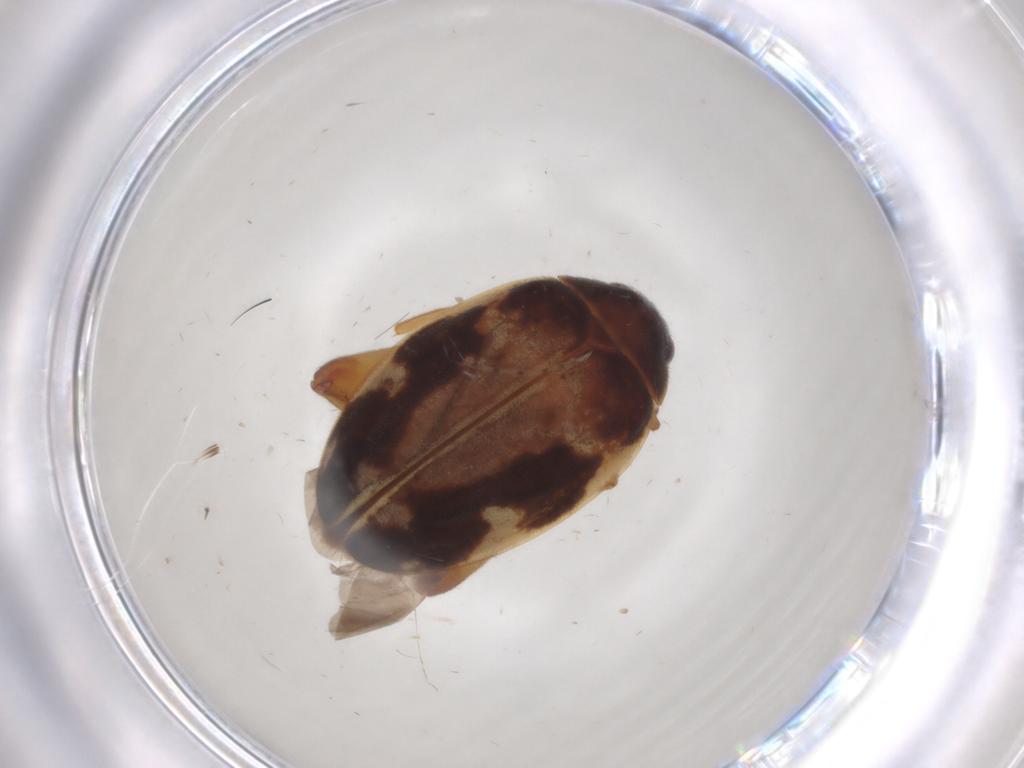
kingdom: Animalia
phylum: Arthropoda
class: Insecta
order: Coleoptera
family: Scirtidae
